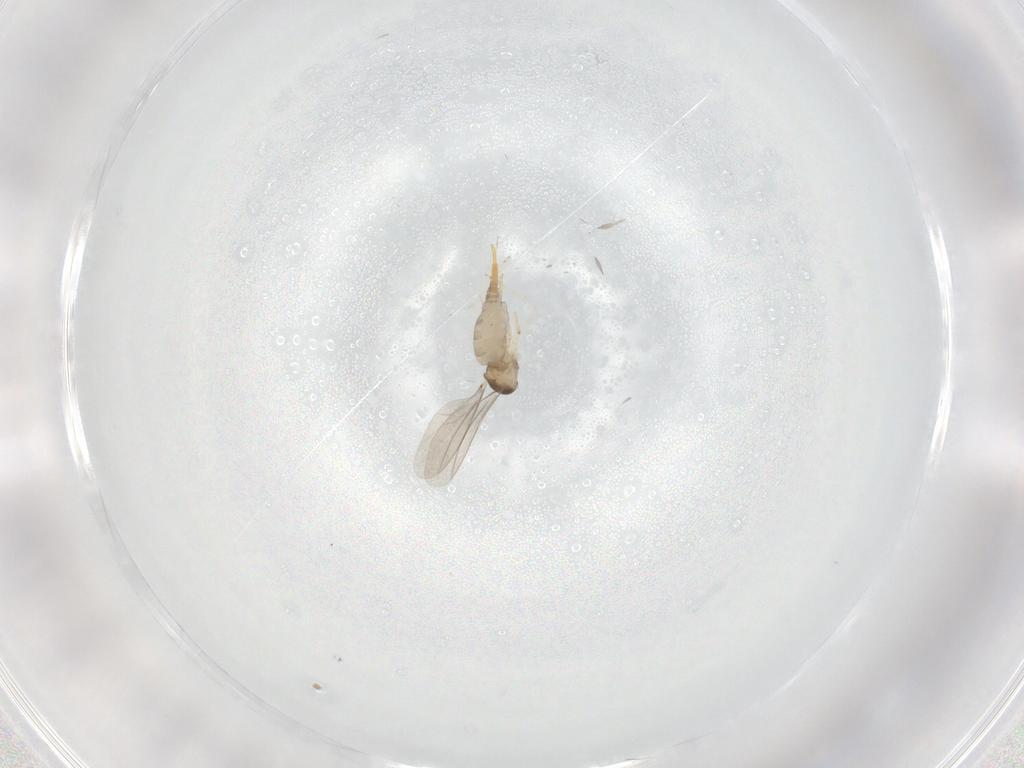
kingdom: Animalia
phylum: Arthropoda
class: Insecta
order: Diptera
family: Cecidomyiidae
